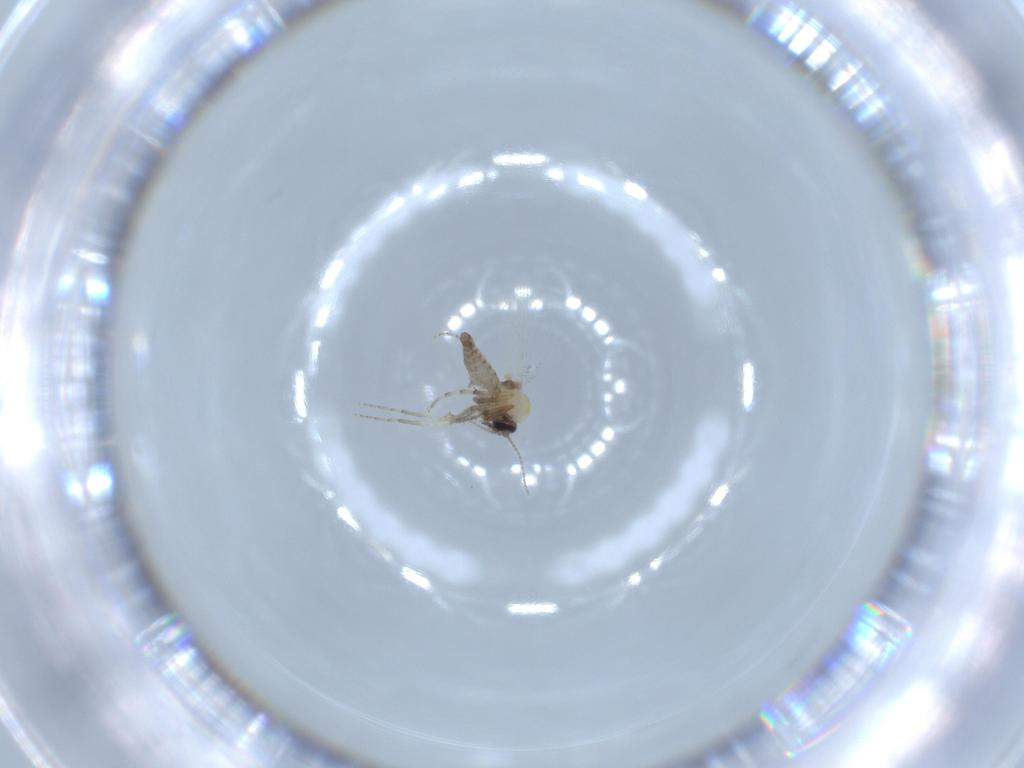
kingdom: Animalia
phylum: Arthropoda
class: Insecta
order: Diptera
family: Ceratopogonidae
